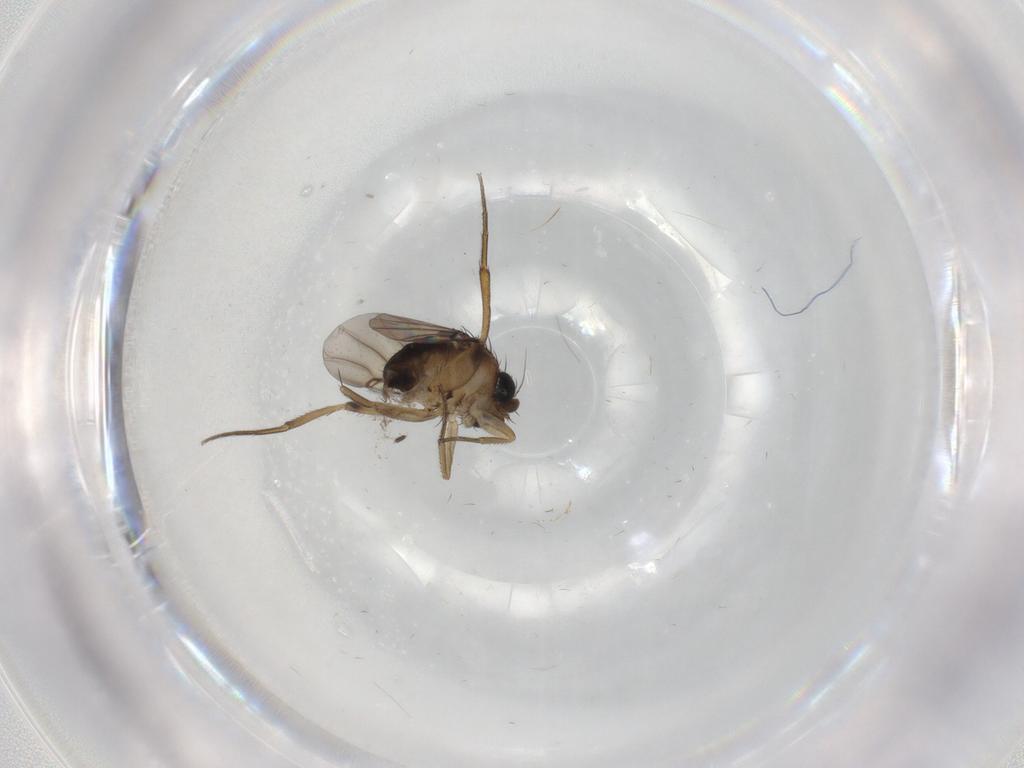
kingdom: Animalia
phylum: Arthropoda
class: Insecta
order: Diptera
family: Phoridae
